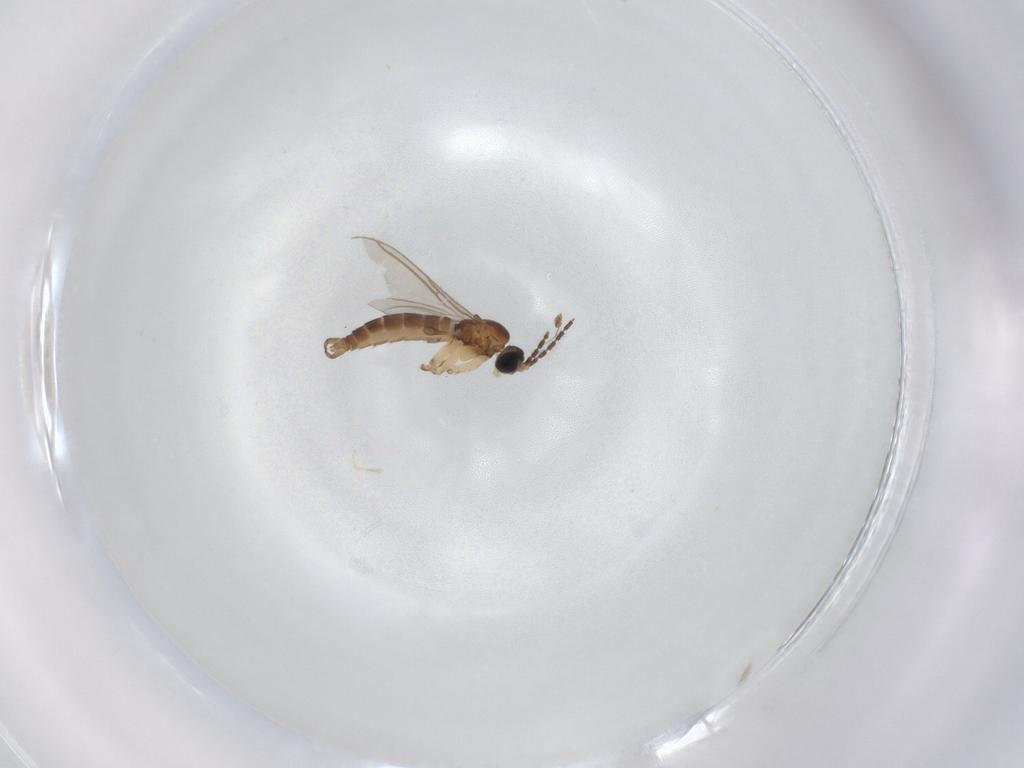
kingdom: Animalia
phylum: Arthropoda
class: Insecta
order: Diptera
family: Sciaridae
